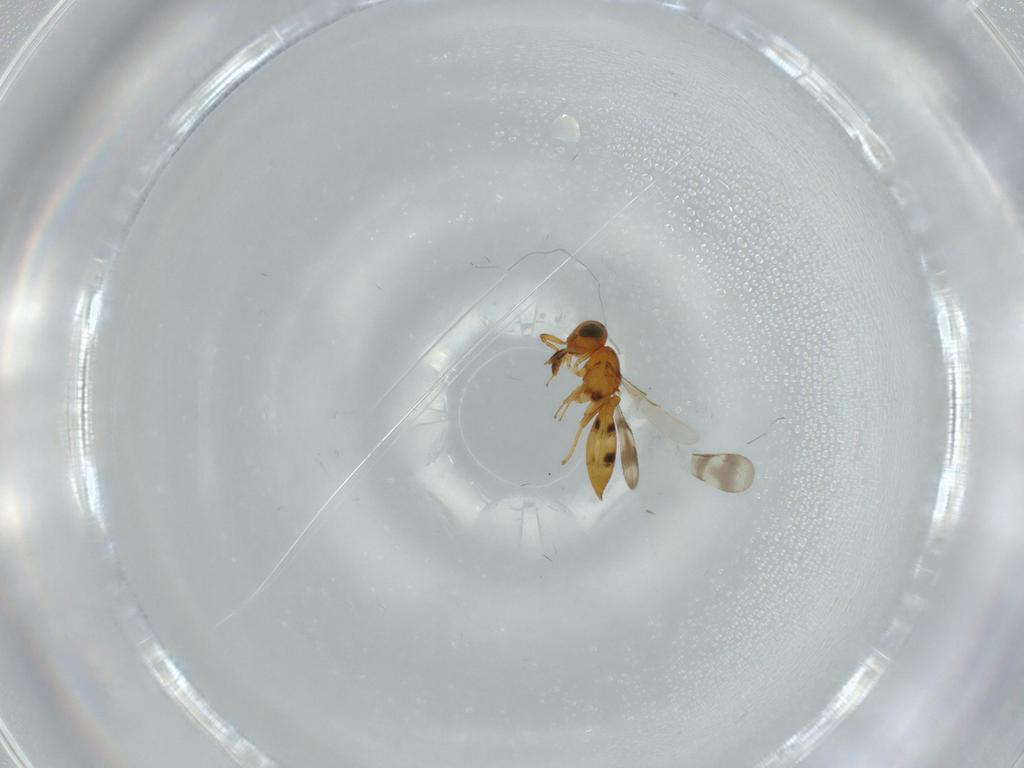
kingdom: Animalia
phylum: Arthropoda
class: Insecta
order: Hymenoptera
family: Scelionidae
